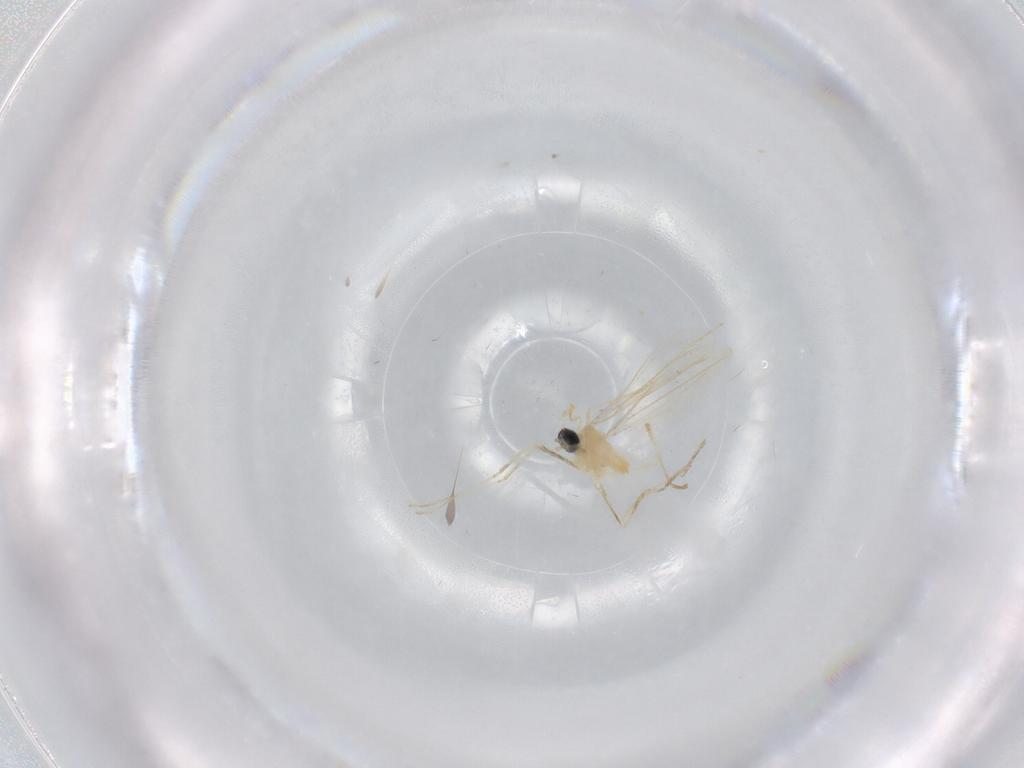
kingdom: Animalia
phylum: Arthropoda
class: Insecta
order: Diptera
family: Cecidomyiidae
